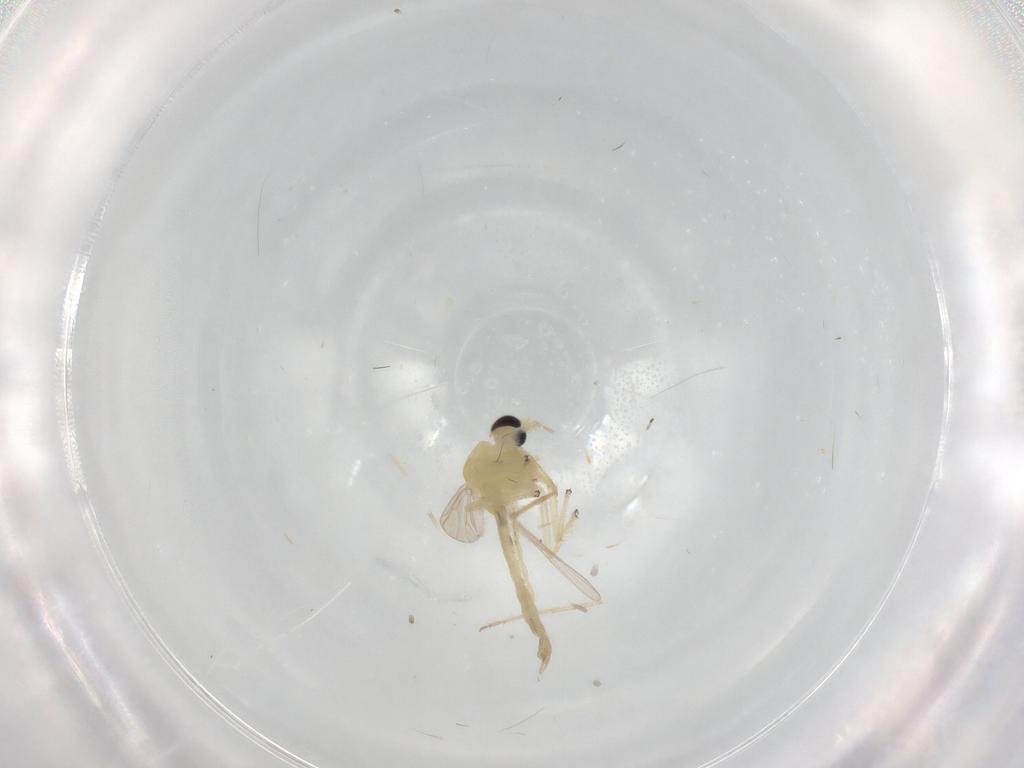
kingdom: Animalia
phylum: Arthropoda
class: Insecta
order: Diptera
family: Chironomidae
